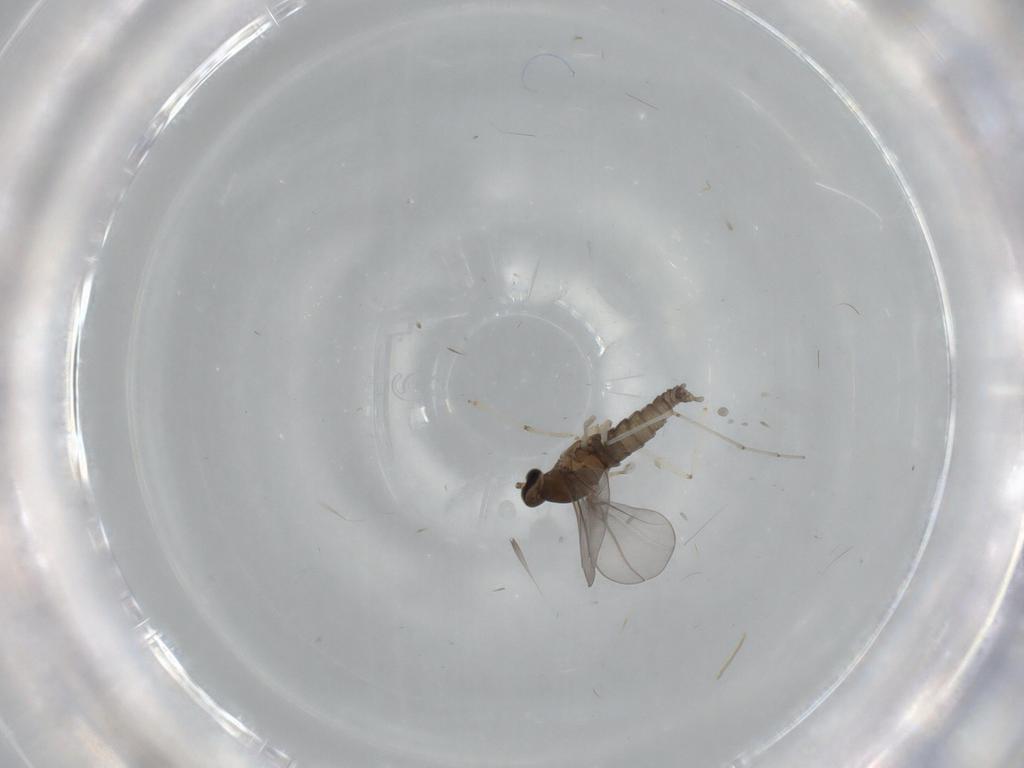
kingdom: Animalia
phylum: Arthropoda
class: Insecta
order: Diptera
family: Cecidomyiidae
